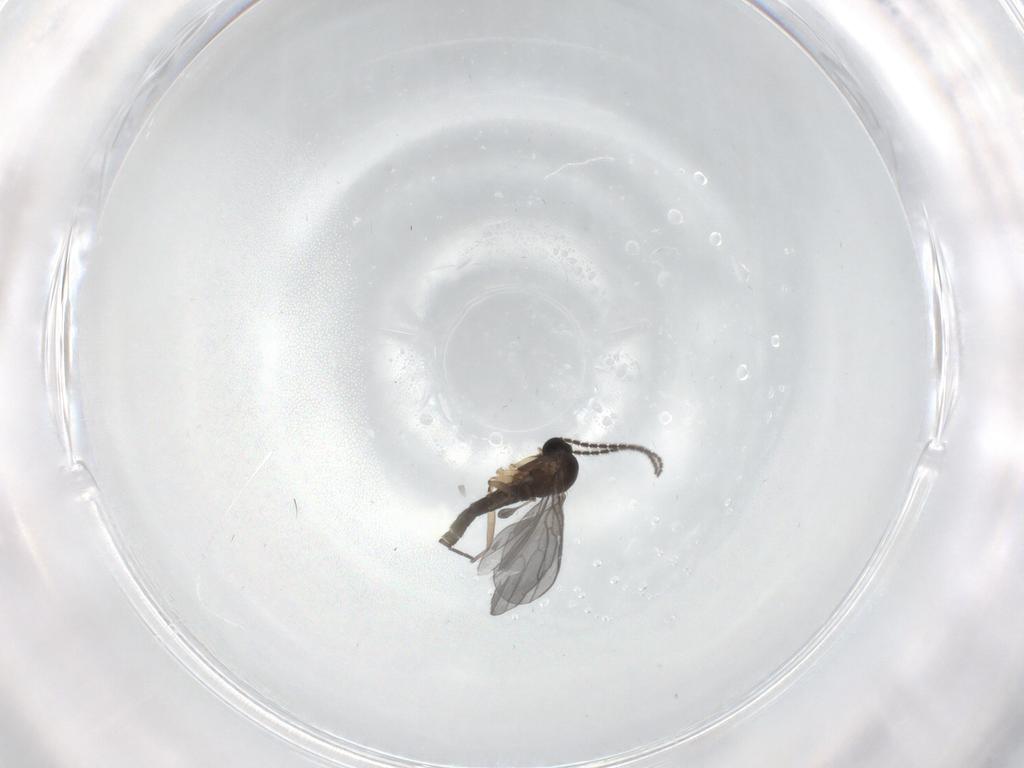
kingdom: Animalia
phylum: Arthropoda
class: Insecta
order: Diptera
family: Sciaridae
